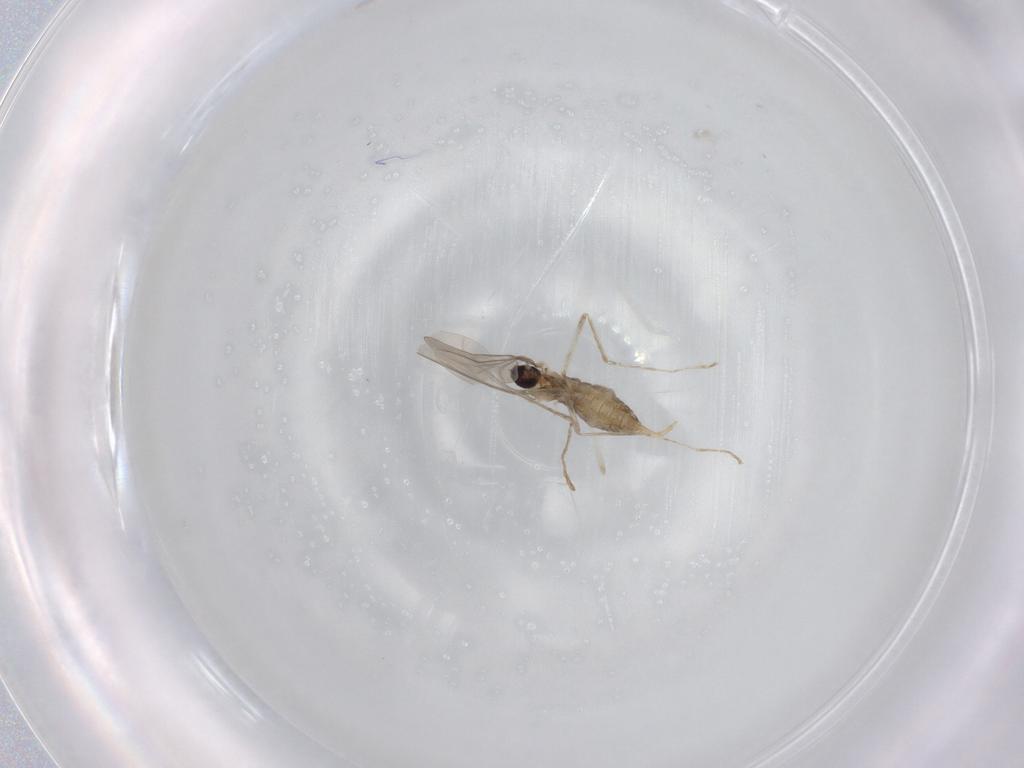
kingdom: Animalia
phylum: Arthropoda
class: Insecta
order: Diptera
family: Cecidomyiidae
